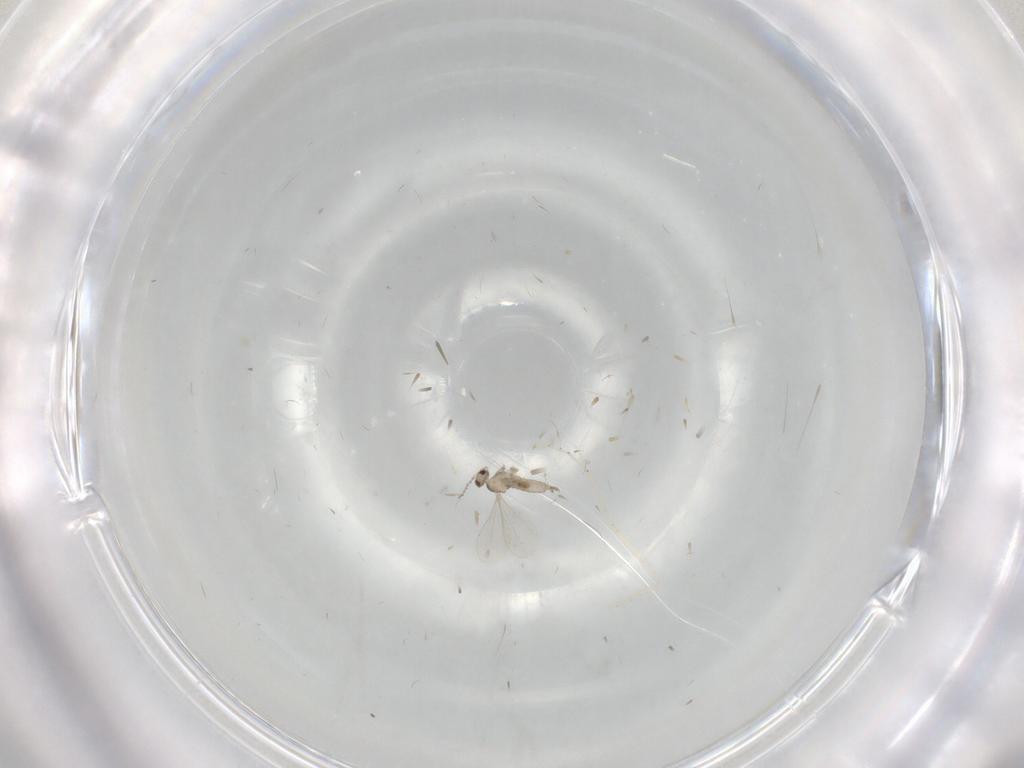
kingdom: Animalia
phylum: Arthropoda
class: Insecta
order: Diptera
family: Cecidomyiidae
